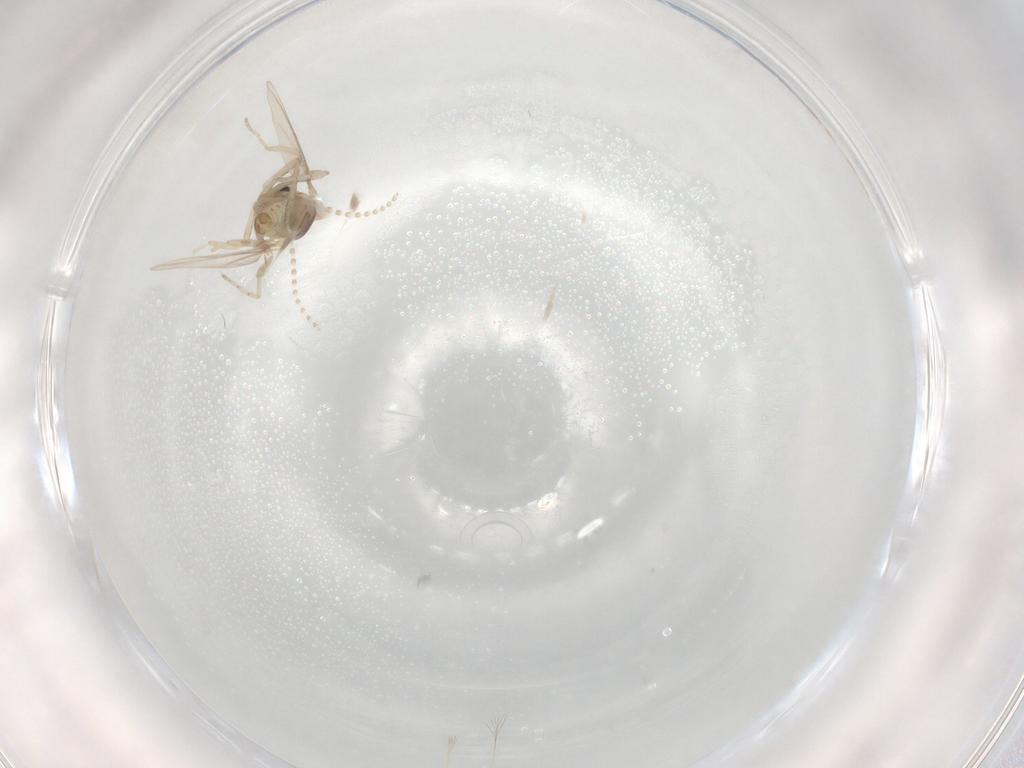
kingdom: Animalia
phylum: Arthropoda
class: Insecta
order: Diptera
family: Cecidomyiidae
